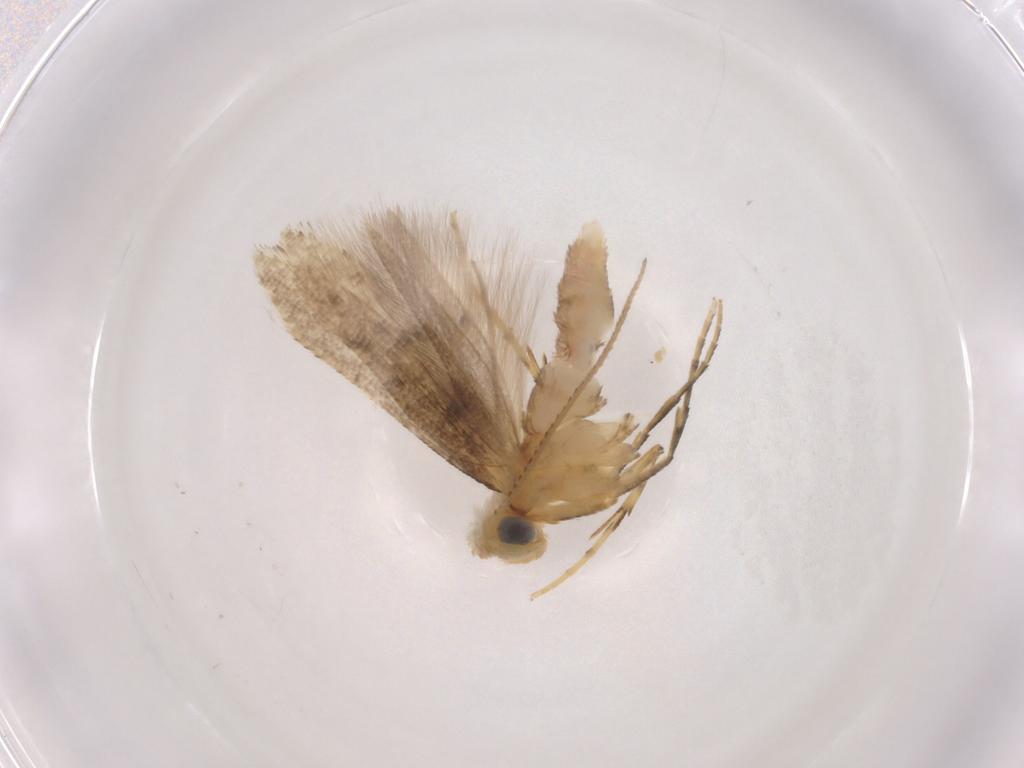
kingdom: Animalia
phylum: Arthropoda
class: Insecta
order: Lepidoptera
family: Argyresthiidae
